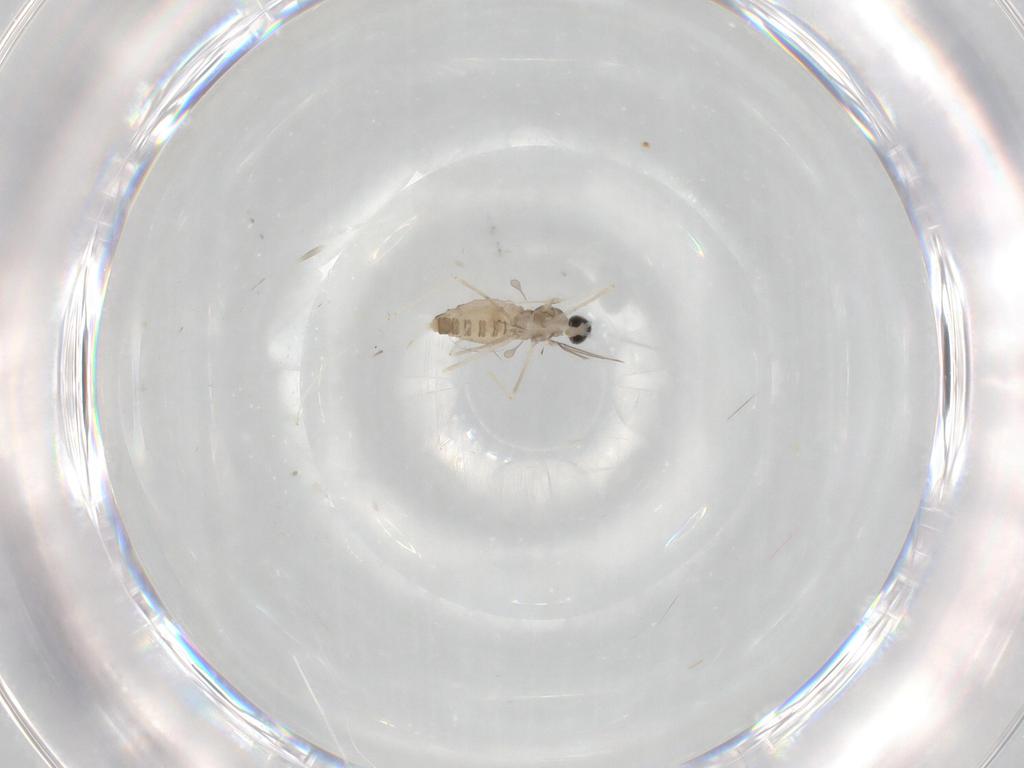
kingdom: Animalia
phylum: Arthropoda
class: Insecta
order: Diptera
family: Cecidomyiidae
